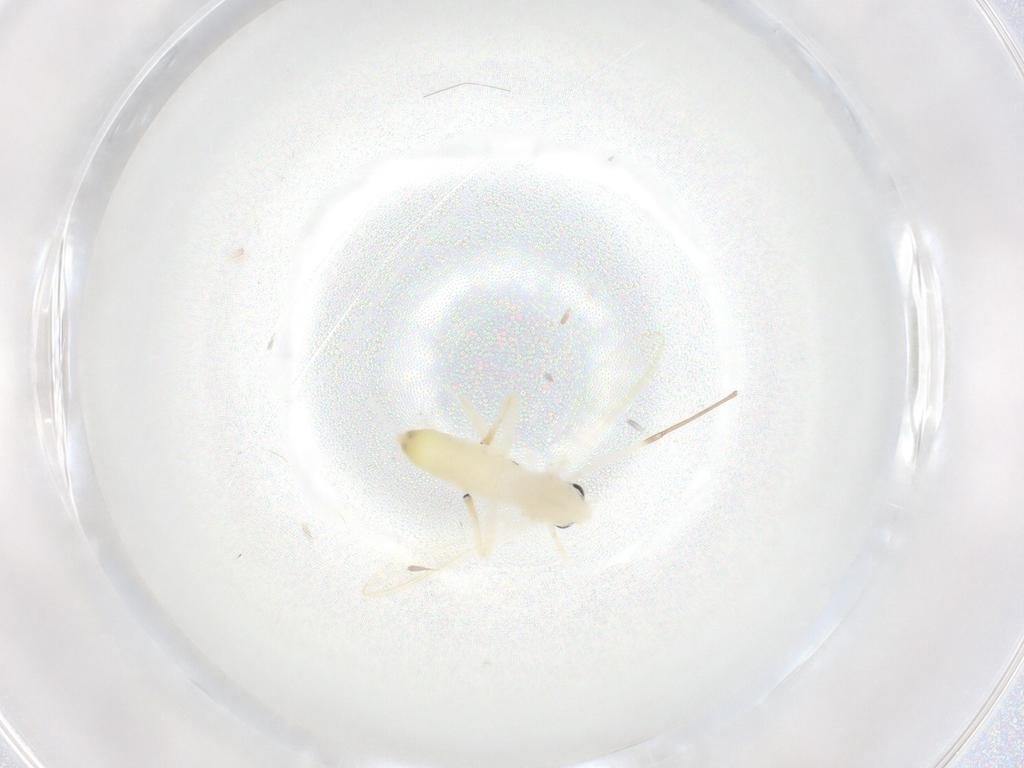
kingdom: Animalia
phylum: Arthropoda
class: Insecta
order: Diptera
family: Chironomidae
